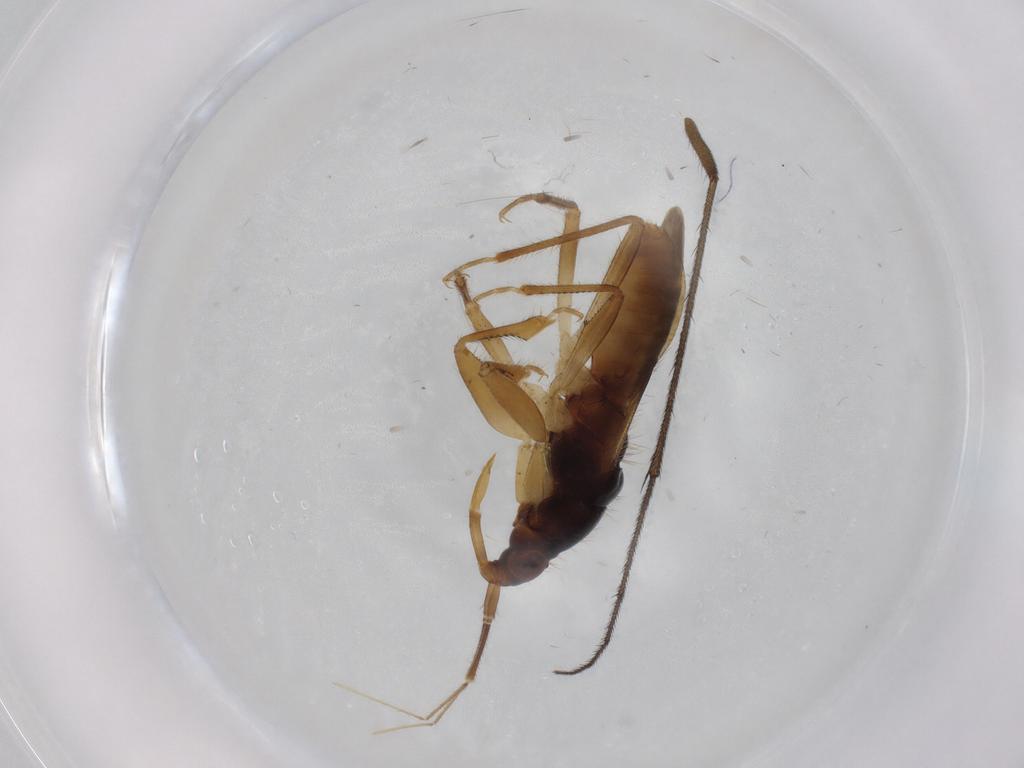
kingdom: Animalia
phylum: Arthropoda
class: Insecta
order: Hemiptera
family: Nabidae
